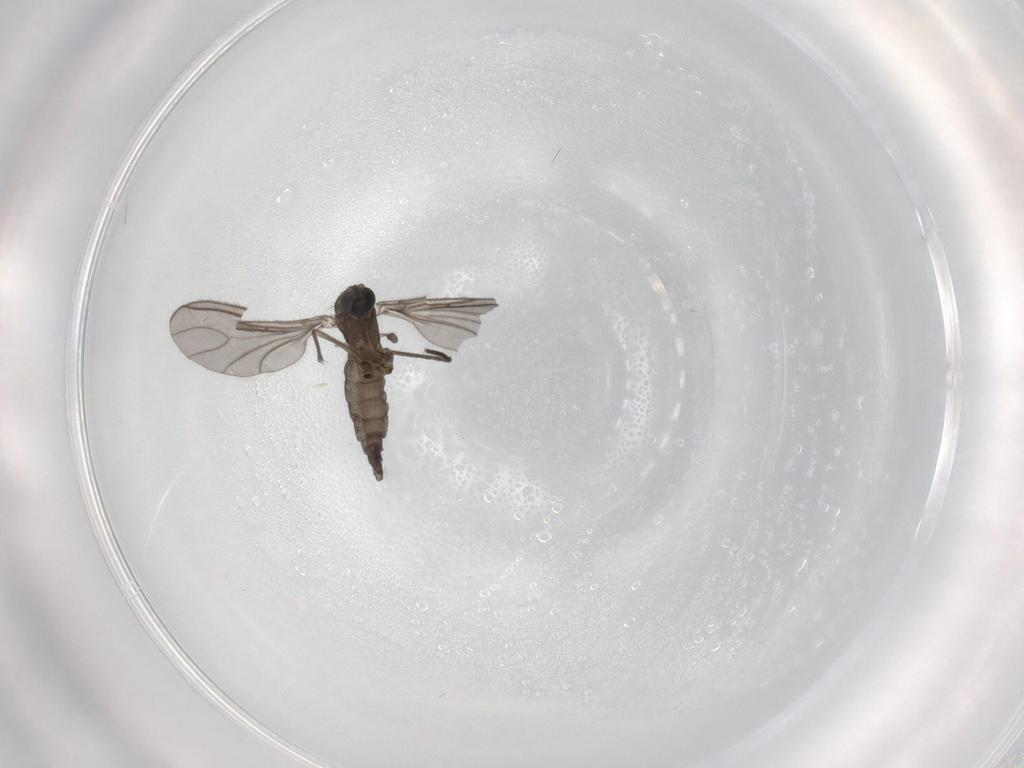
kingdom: Animalia
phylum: Arthropoda
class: Insecta
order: Diptera
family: Sciaridae
